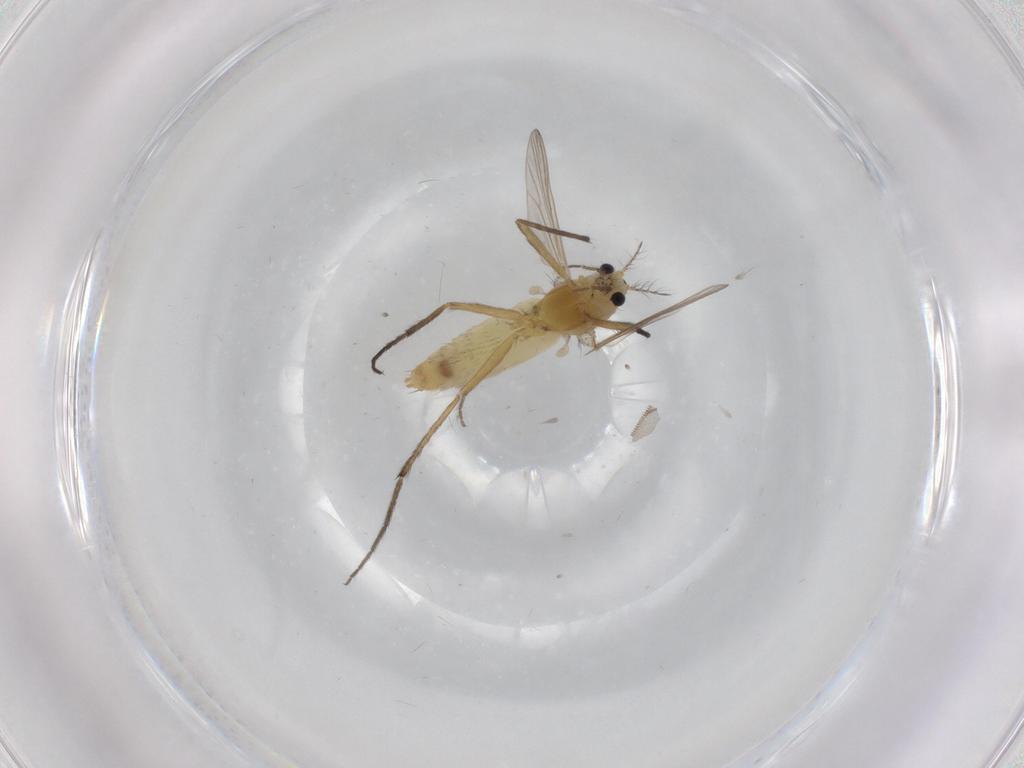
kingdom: Animalia
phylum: Arthropoda
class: Insecta
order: Diptera
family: Chironomidae
